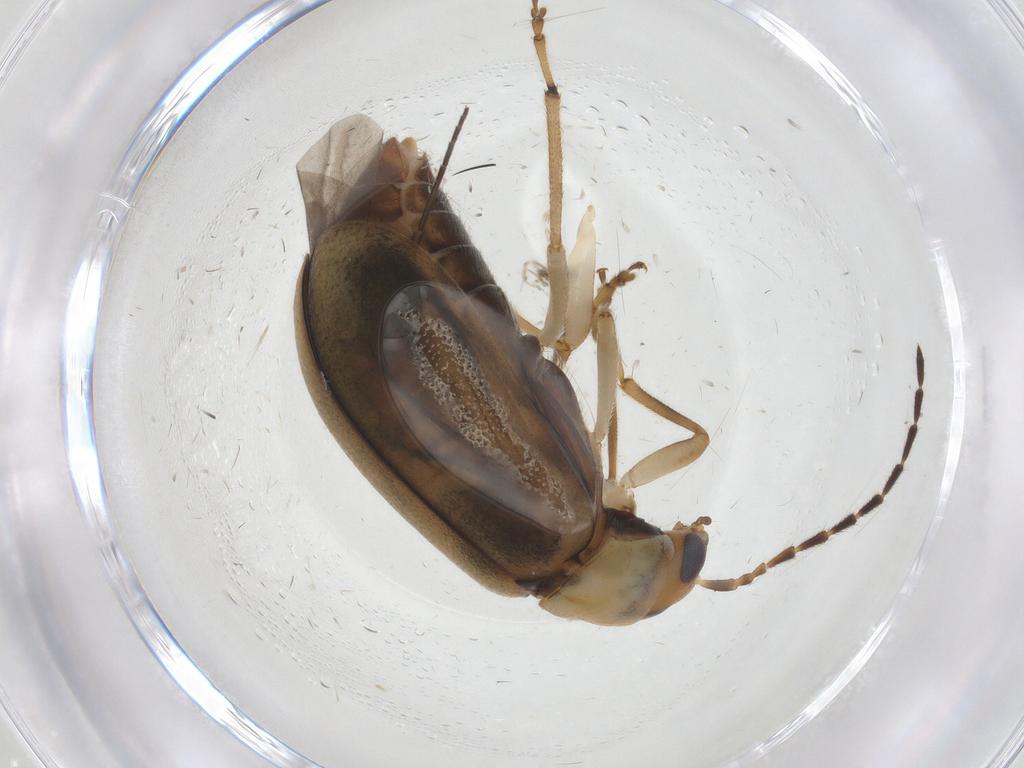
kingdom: Animalia
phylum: Arthropoda
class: Insecta
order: Coleoptera
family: Chrysomelidae
